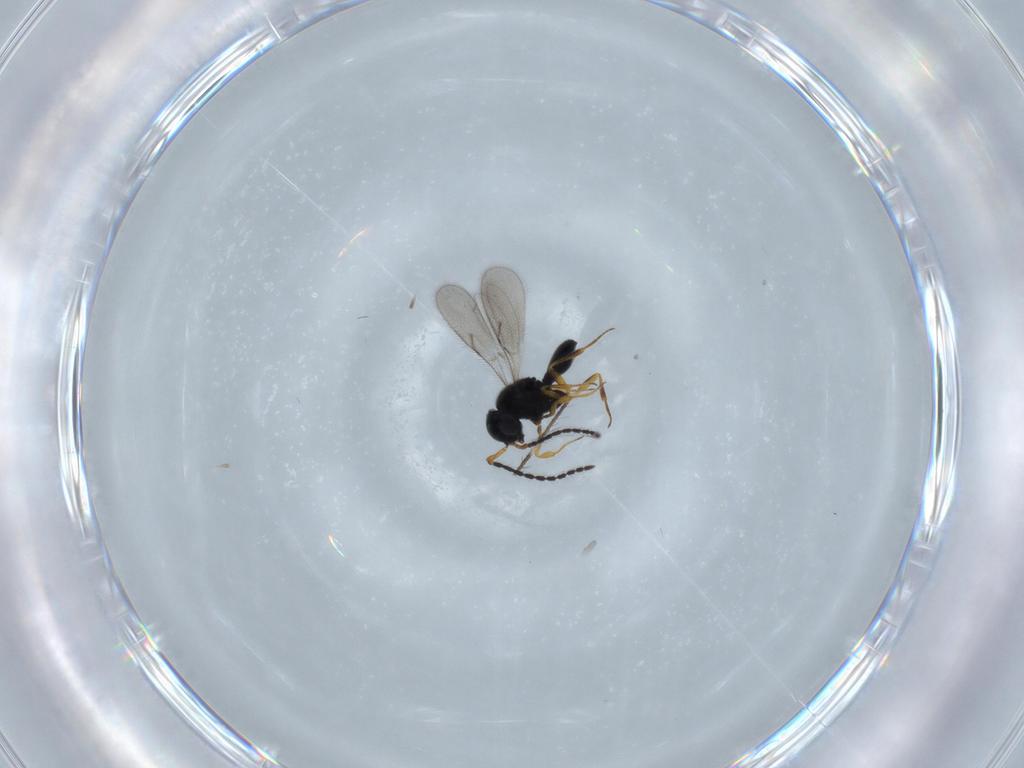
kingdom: Animalia
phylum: Arthropoda
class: Insecta
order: Hymenoptera
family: Scelionidae
